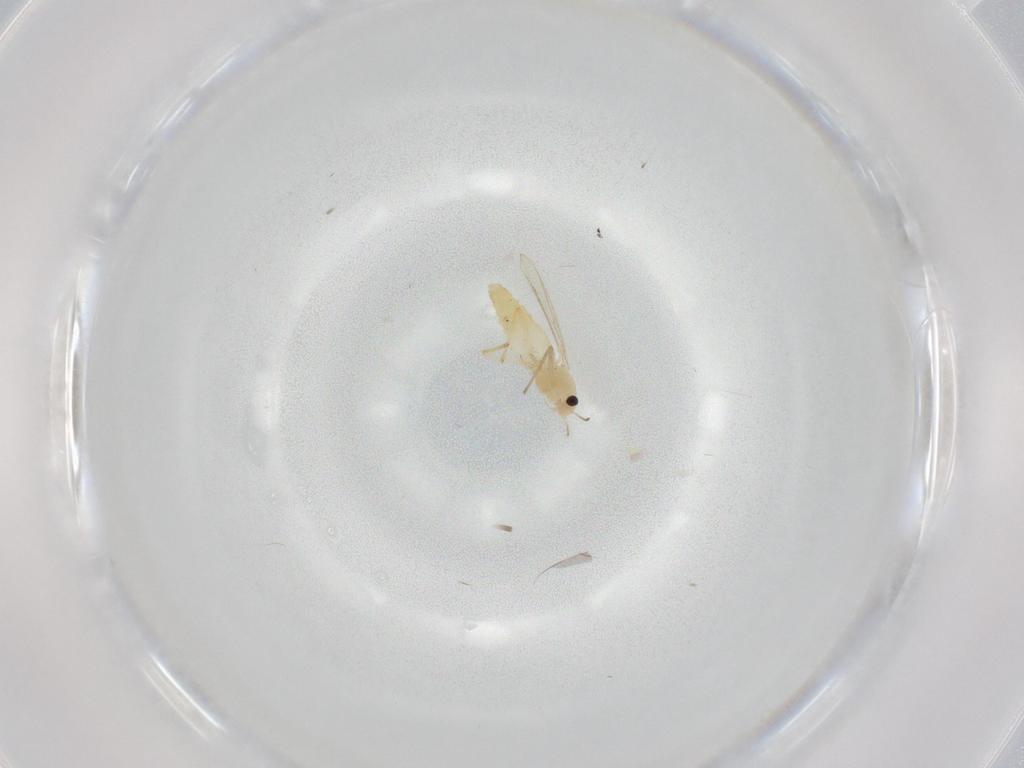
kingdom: Animalia
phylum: Arthropoda
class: Insecta
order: Diptera
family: Chironomidae
